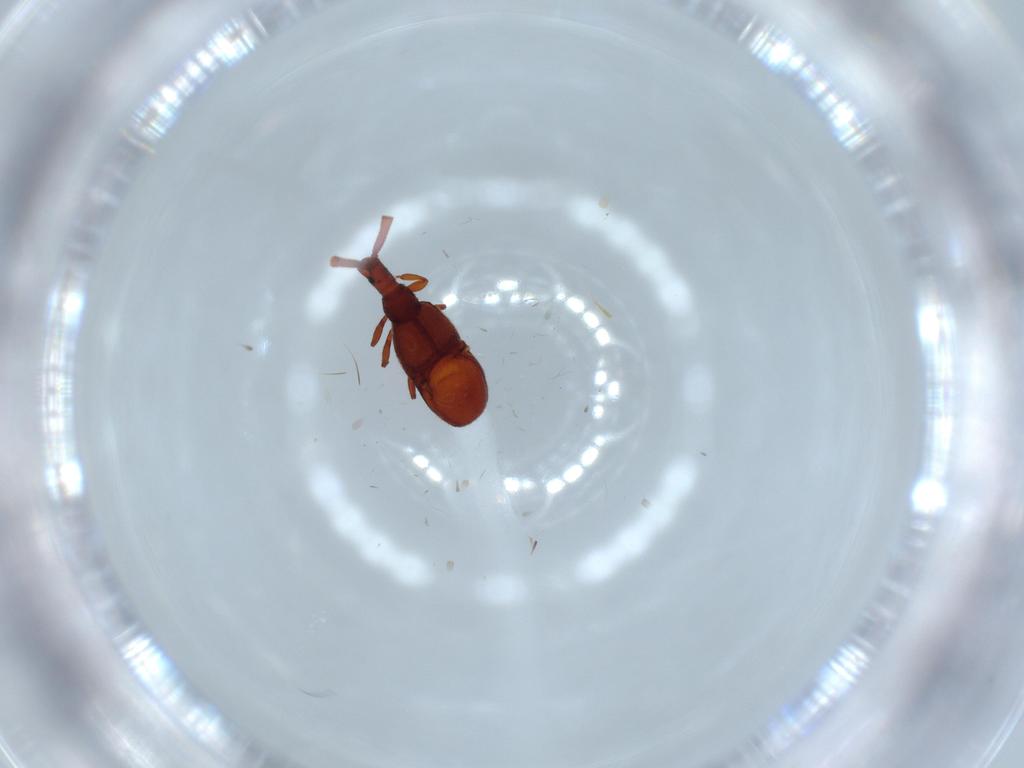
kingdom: Animalia
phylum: Arthropoda
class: Insecta
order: Coleoptera
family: Staphylinidae
